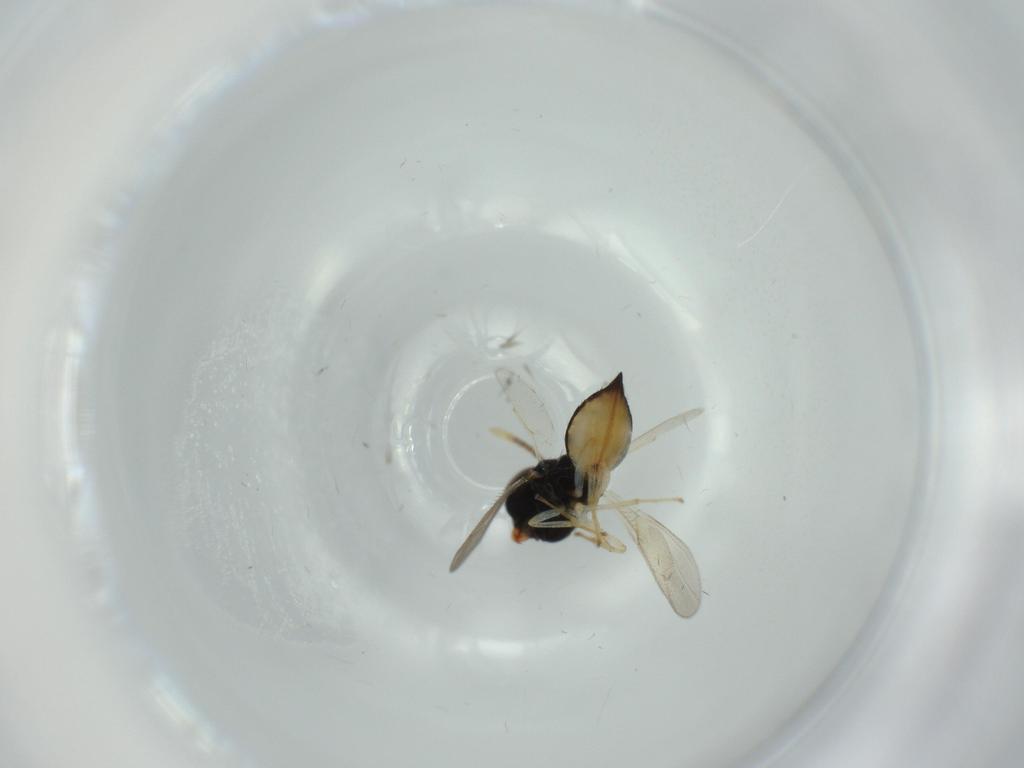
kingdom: Animalia
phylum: Arthropoda
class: Insecta
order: Hymenoptera
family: Pteromalidae
